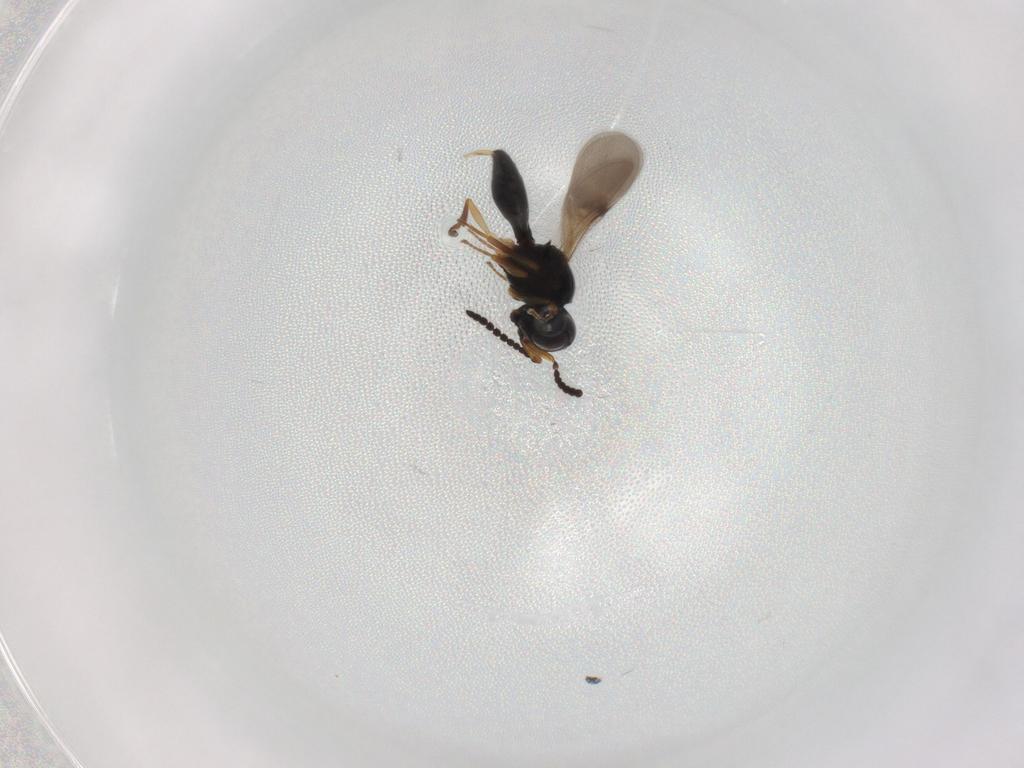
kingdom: Animalia
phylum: Arthropoda
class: Insecta
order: Hymenoptera
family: Scelionidae
